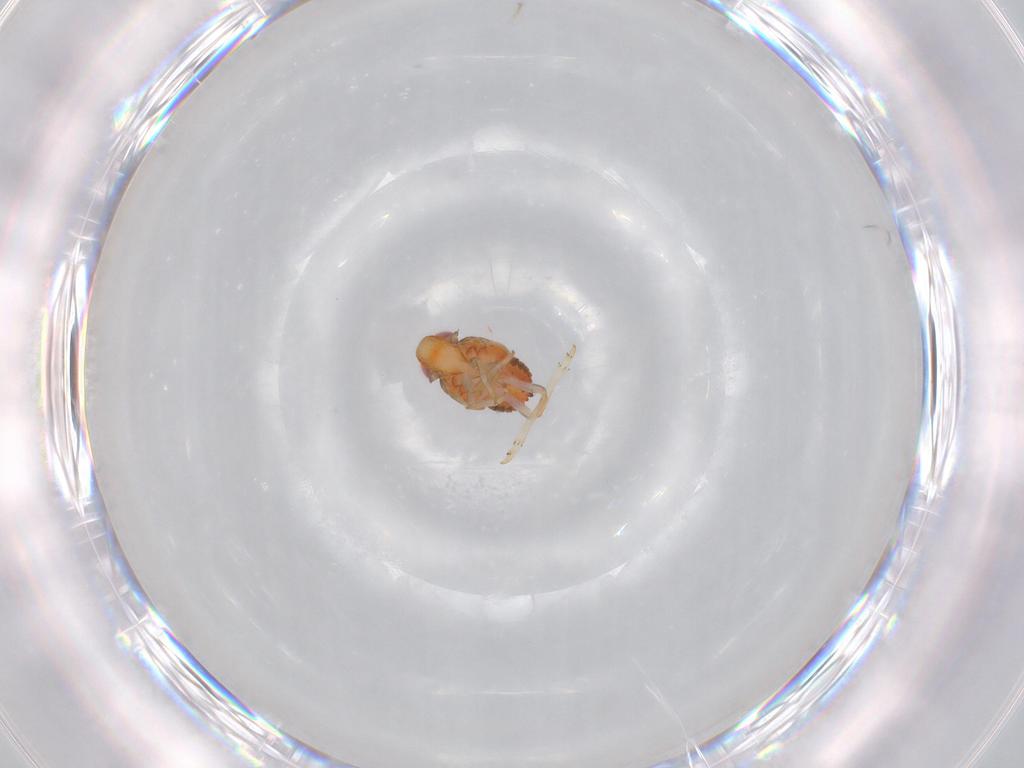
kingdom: Animalia
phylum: Arthropoda
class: Insecta
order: Hemiptera
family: Issidae
